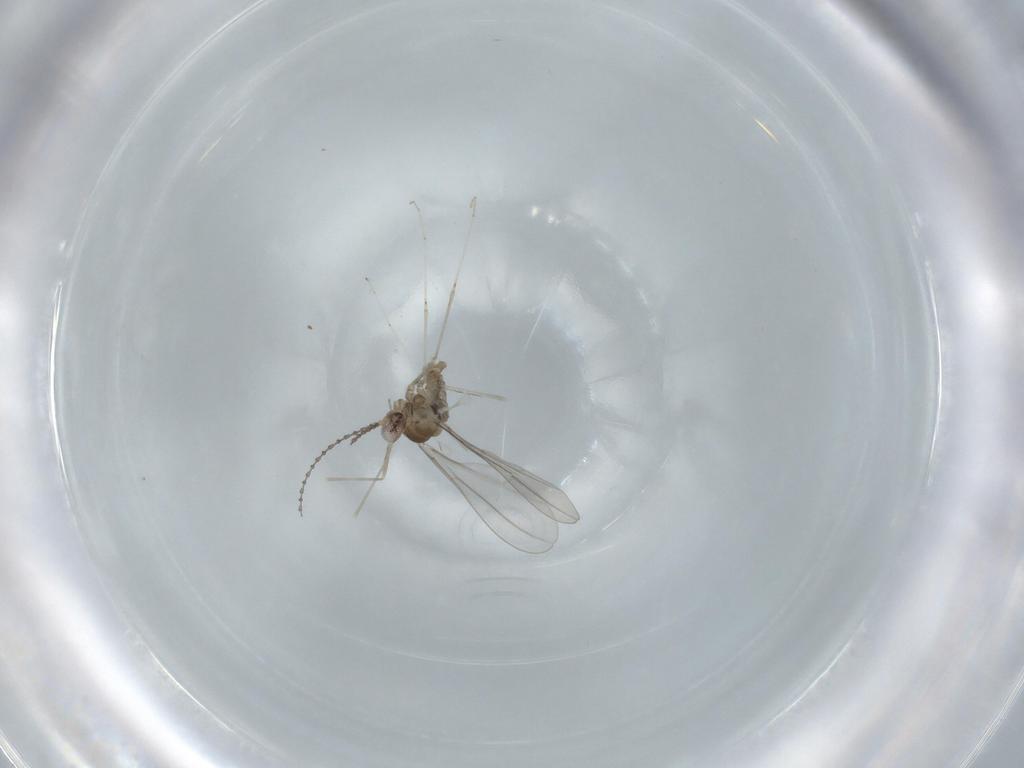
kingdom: Animalia
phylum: Arthropoda
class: Insecta
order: Diptera
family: Cecidomyiidae
